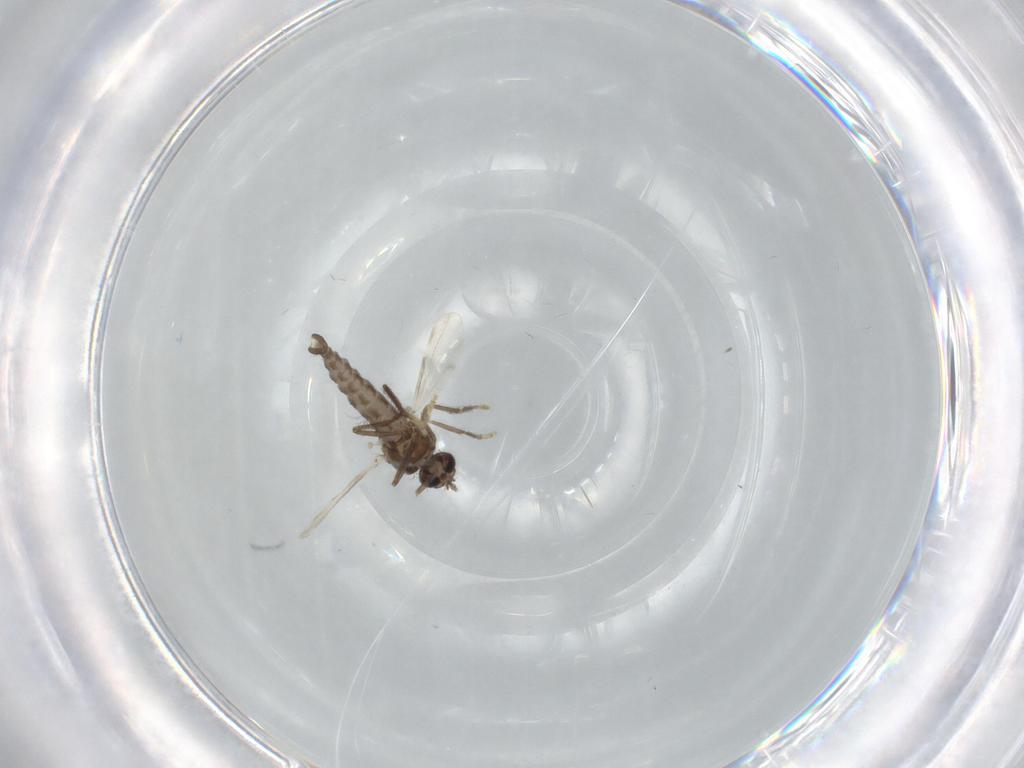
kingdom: Animalia
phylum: Arthropoda
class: Insecta
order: Diptera
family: Ceratopogonidae
